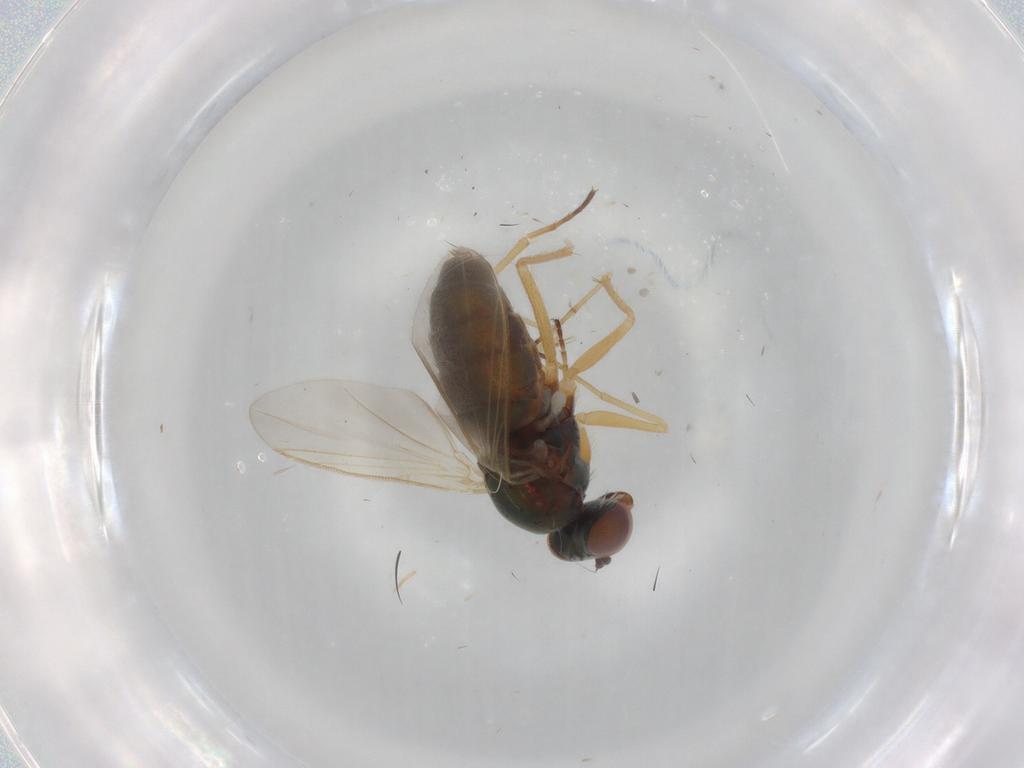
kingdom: Animalia
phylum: Arthropoda
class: Insecta
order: Diptera
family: Dolichopodidae
